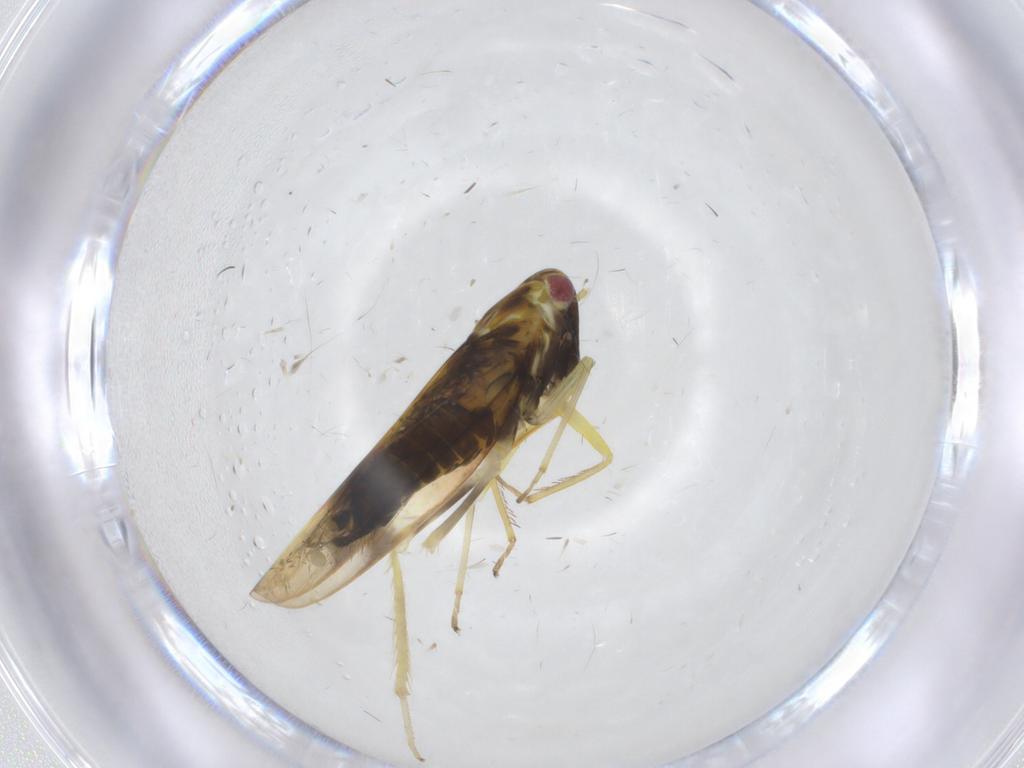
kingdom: Animalia
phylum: Arthropoda
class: Insecta
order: Hemiptera
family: Cicadellidae
